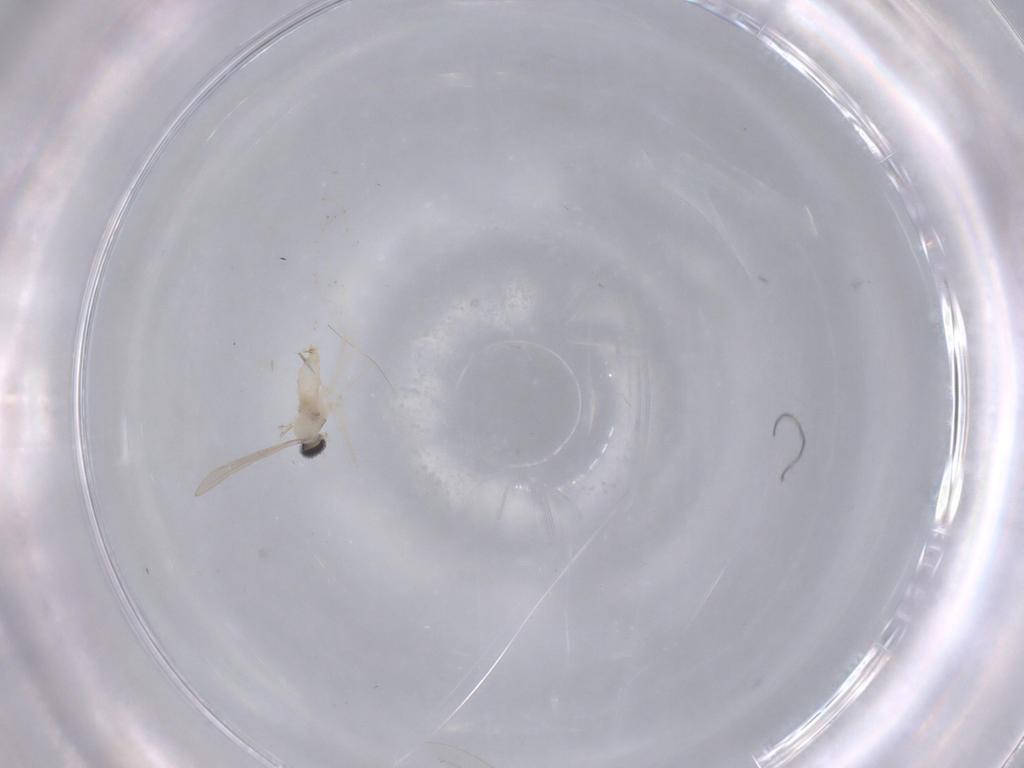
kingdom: Animalia
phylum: Arthropoda
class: Insecta
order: Diptera
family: Cecidomyiidae
